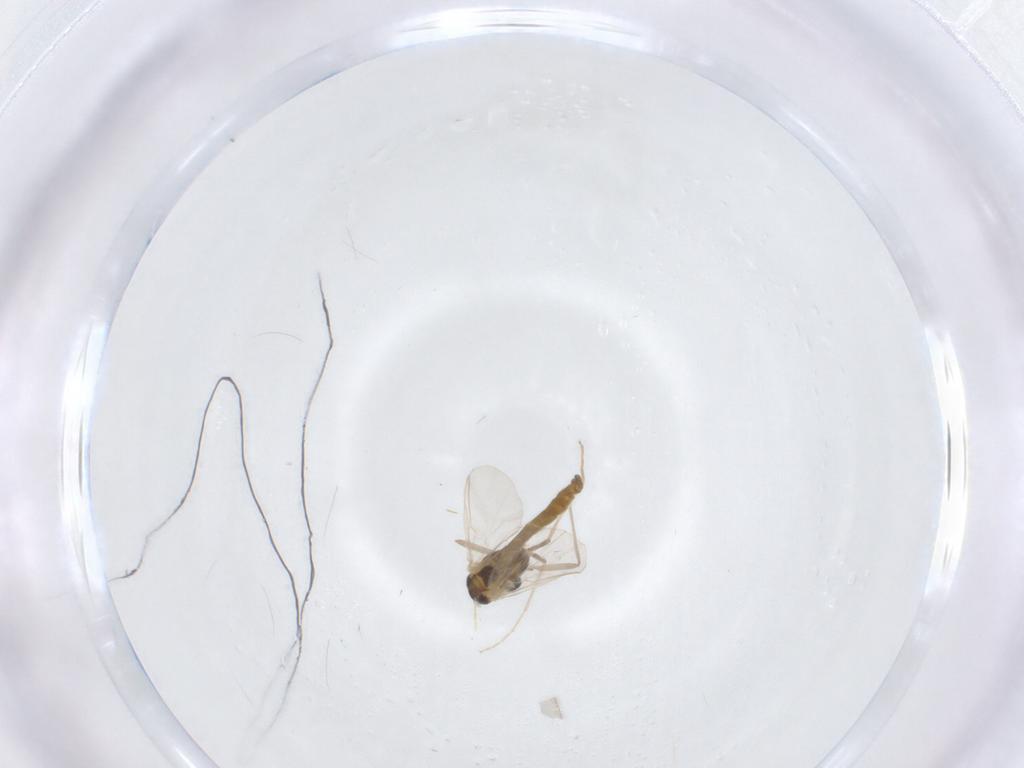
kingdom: Animalia
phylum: Arthropoda
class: Insecta
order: Diptera
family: Chironomidae
